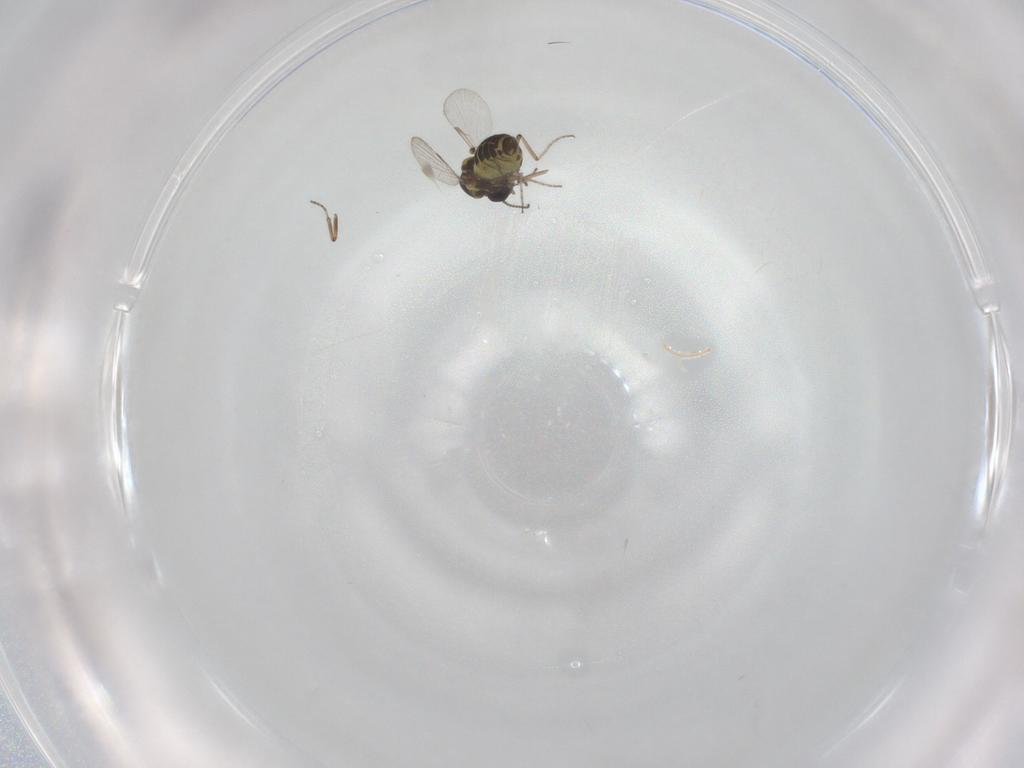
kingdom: Animalia
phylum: Arthropoda
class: Insecta
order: Diptera
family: Ceratopogonidae
